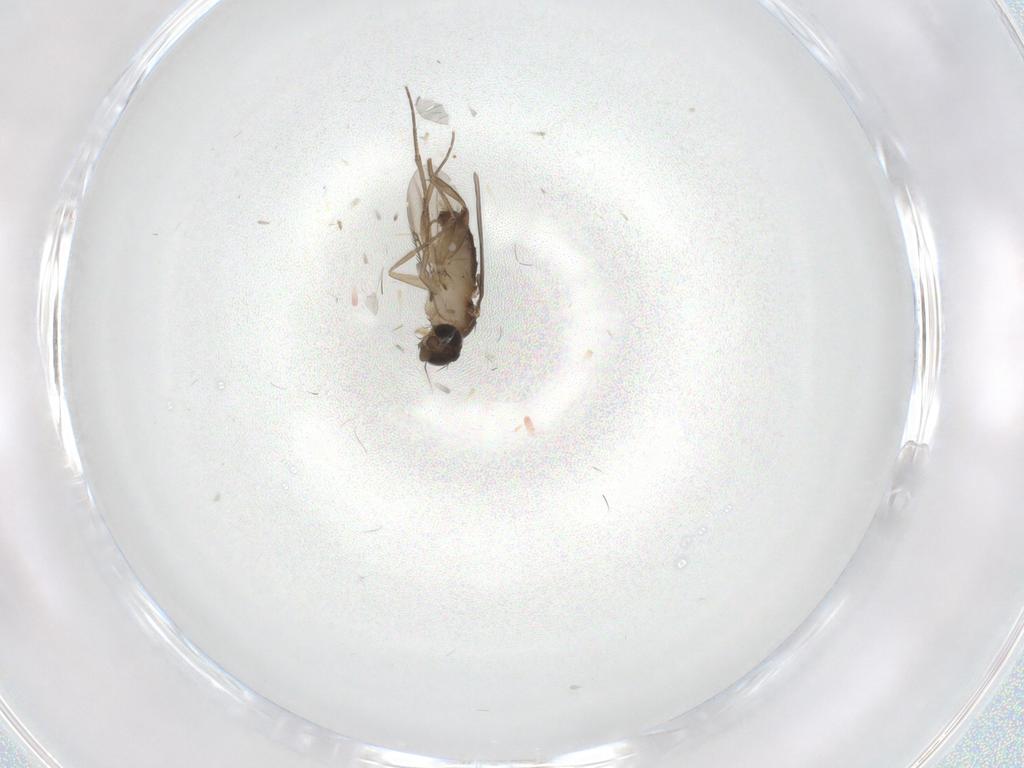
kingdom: Animalia
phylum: Arthropoda
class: Insecta
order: Diptera
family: Phoridae
